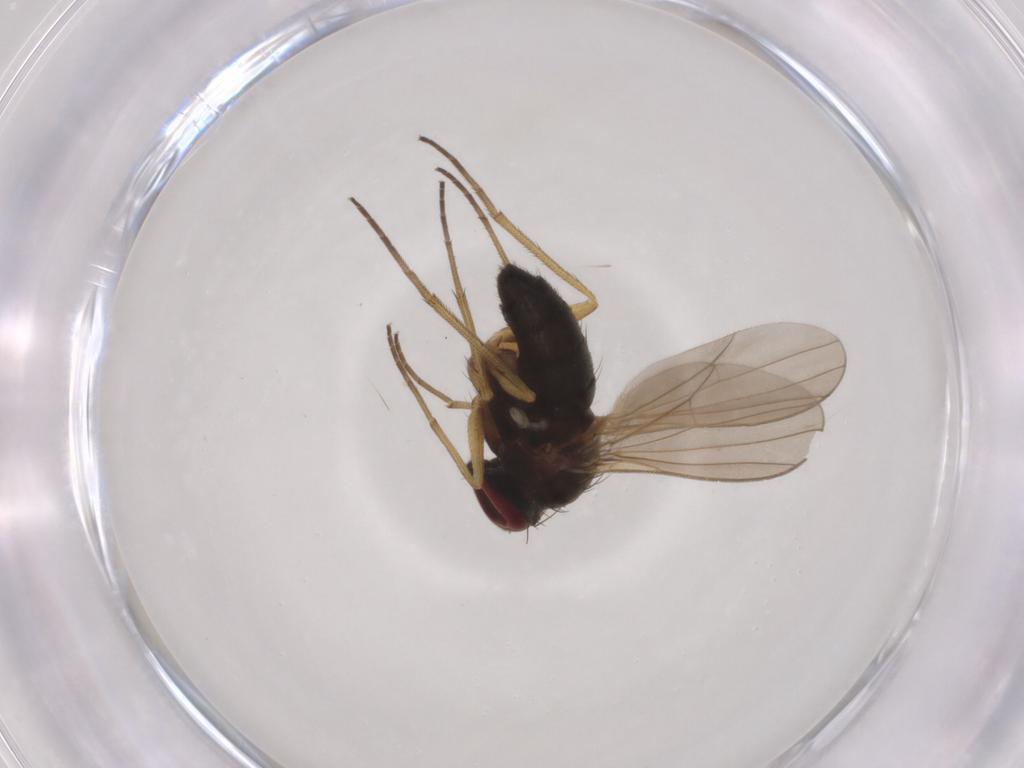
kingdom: Animalia
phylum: Arthropoda
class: Insecta
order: Diptera
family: Dolichopodidae
